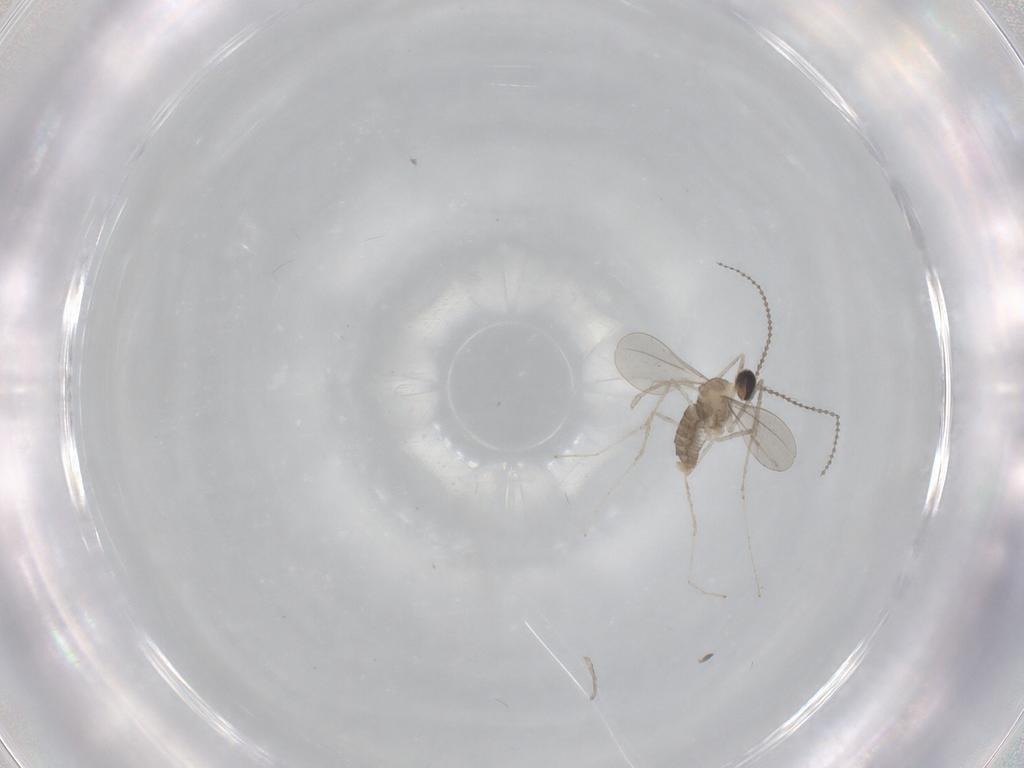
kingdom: Animalia
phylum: Arthropoda
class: Insecta
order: Diptera
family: Cecidomyiidae
